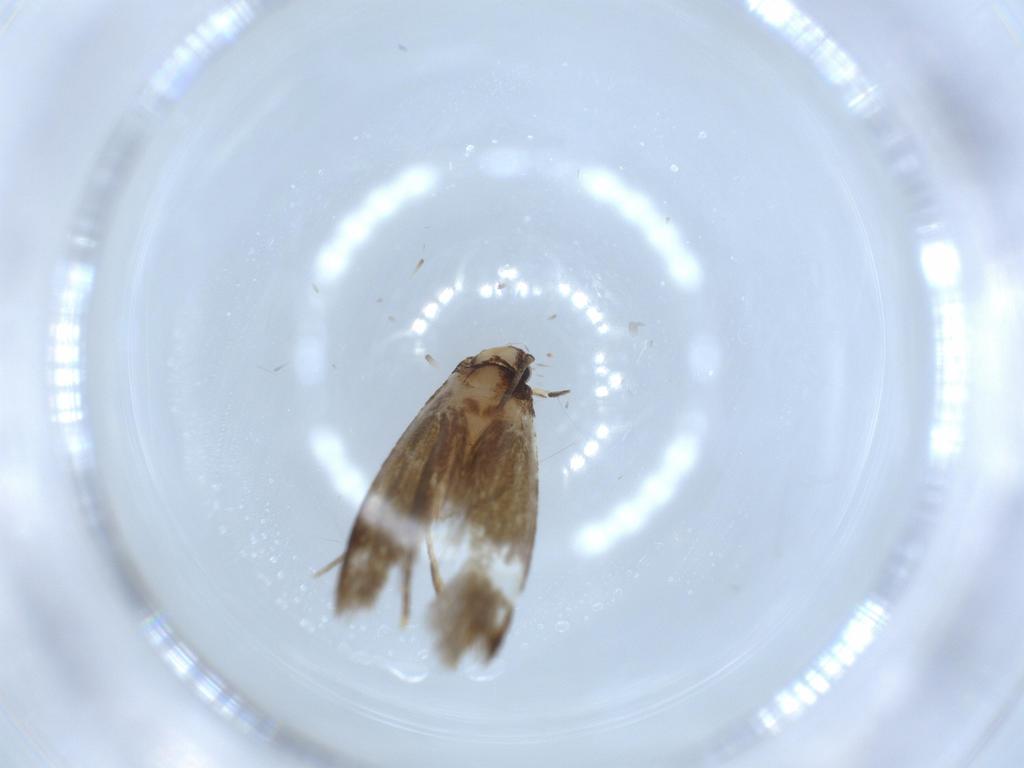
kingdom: Animalia
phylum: Arthropoda
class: Insecta
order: Lepidoptera
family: Tineidae
